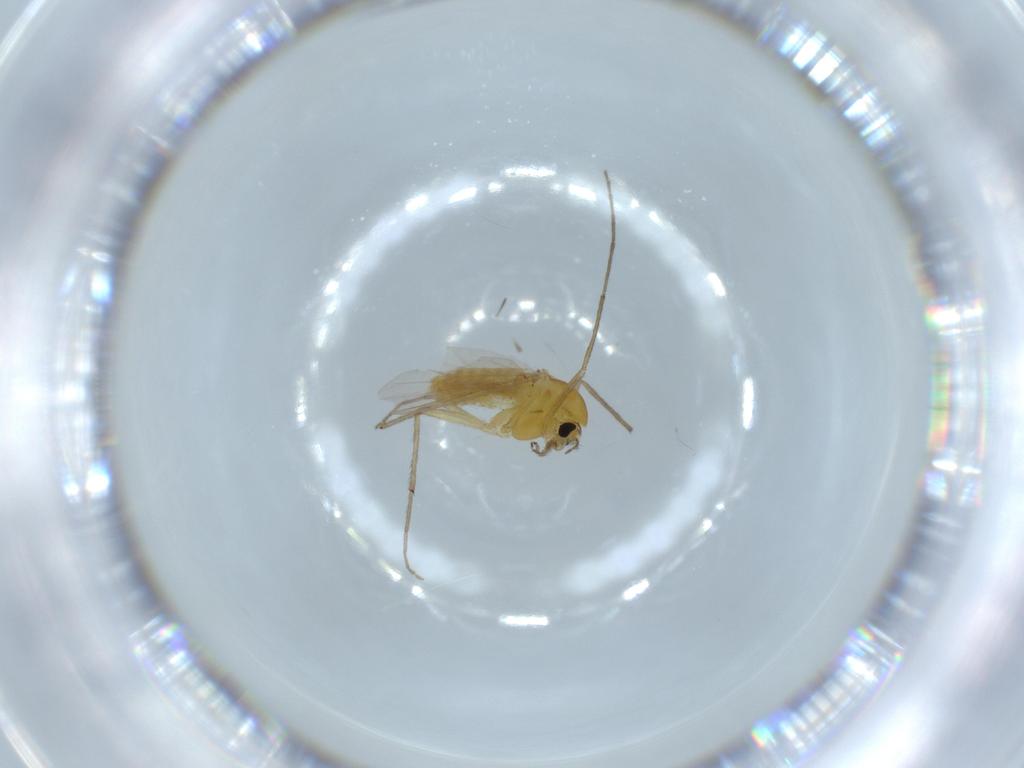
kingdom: Animalia
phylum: Arthropoda
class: Insecta
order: Diptera
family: Chironomidae
